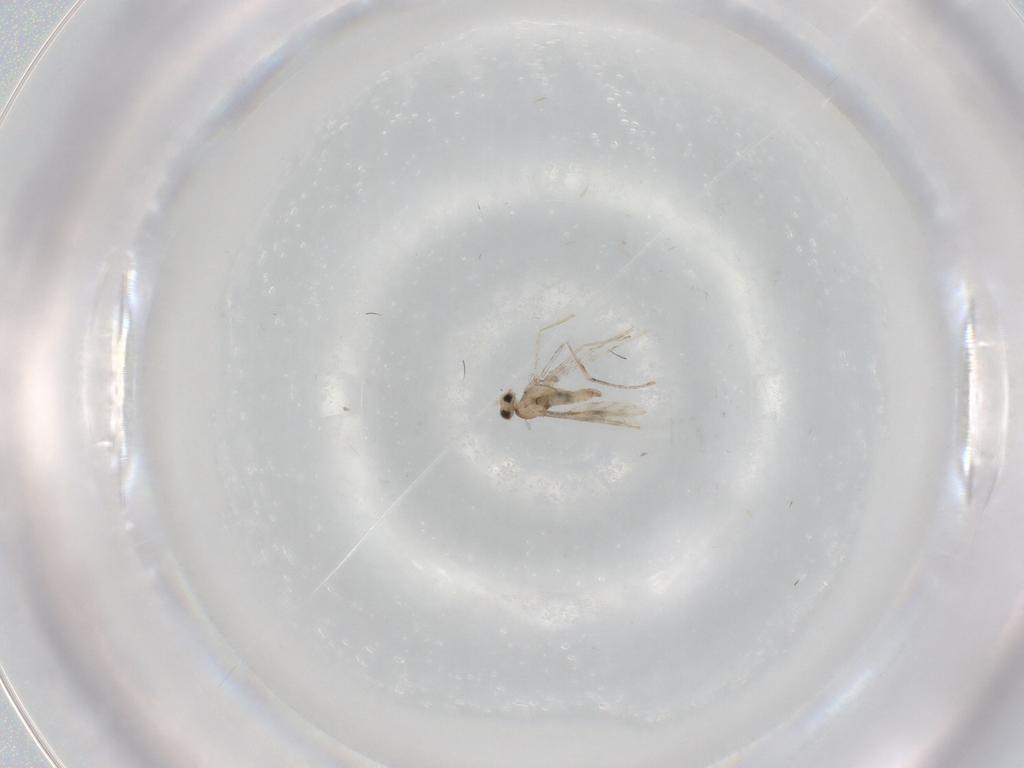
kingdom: Animalia
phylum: Arthropoda
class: Insecta
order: Diptera
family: Cecidomyiidae
